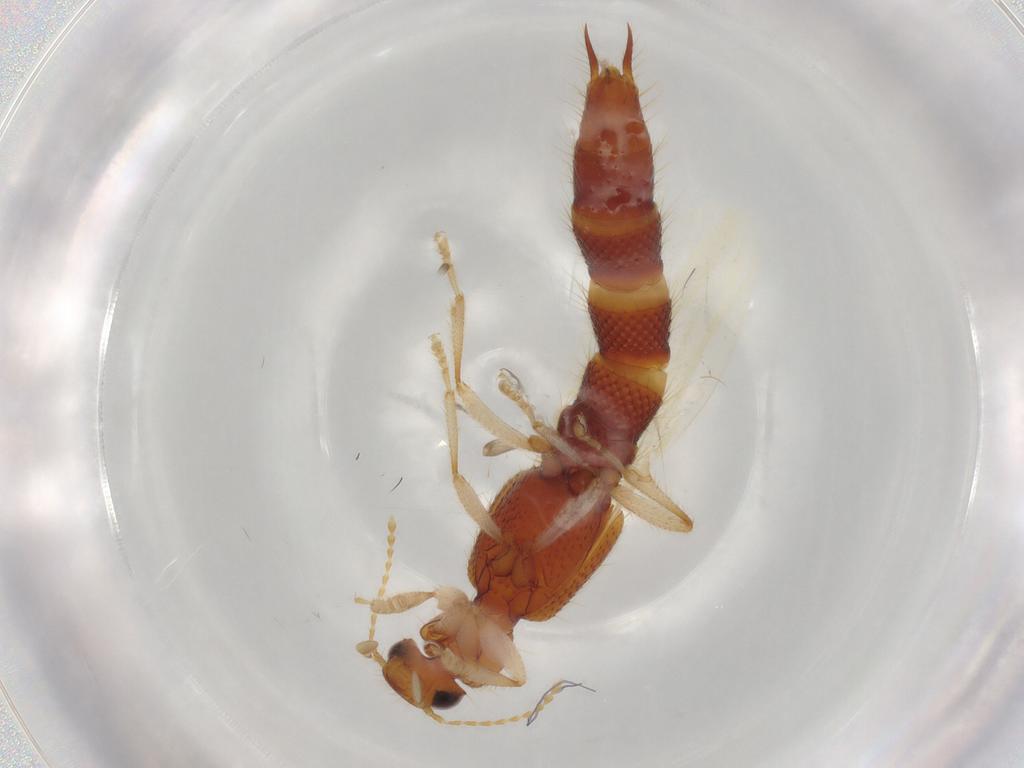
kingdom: Animalia
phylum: Arthropoda
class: Insecta
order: Coleoptera
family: Staphylinidae
